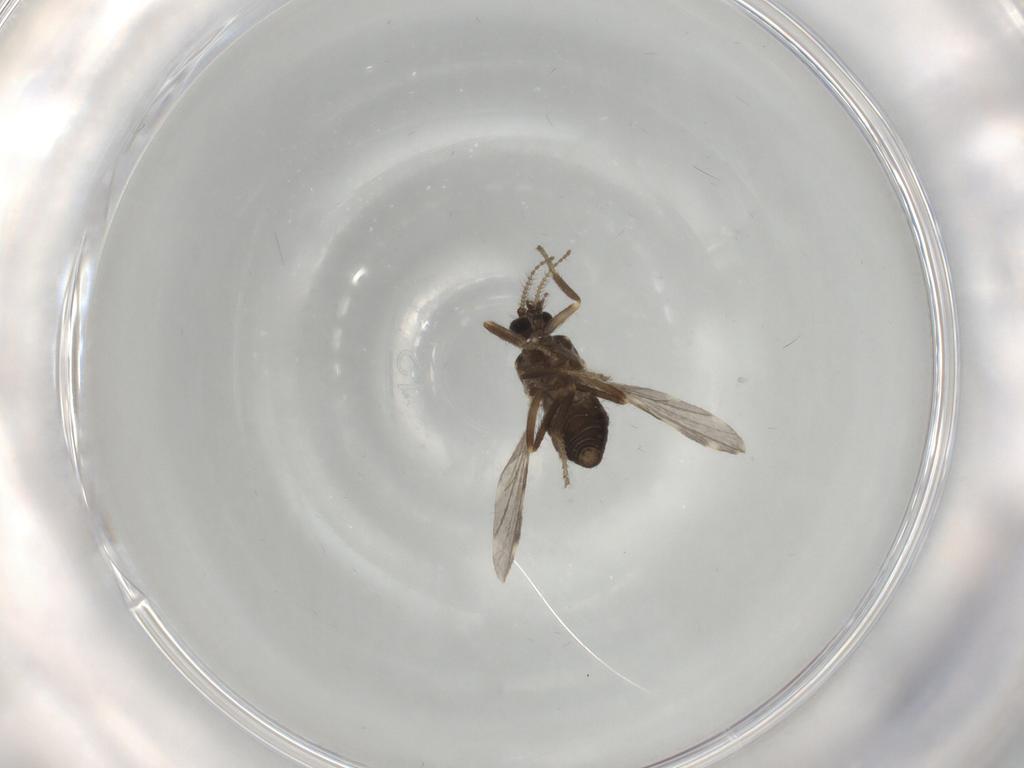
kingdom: Animalia
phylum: Arthropoda
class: Insecta
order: Diptera
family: Ceratopogonidae
